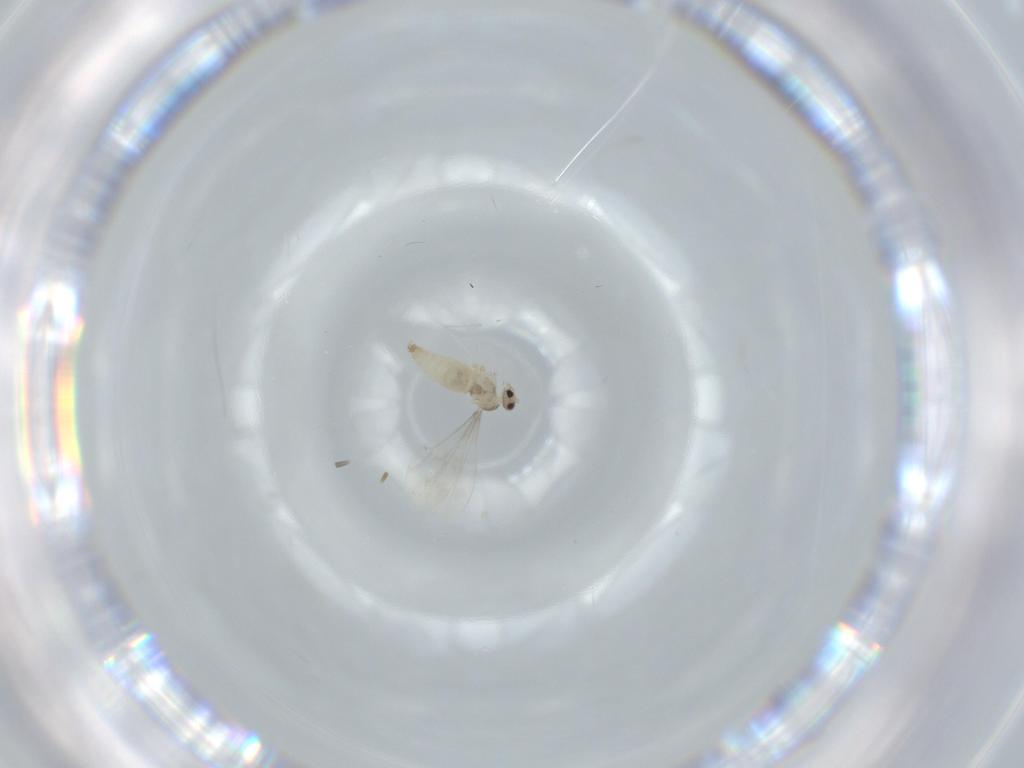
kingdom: Animalia
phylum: Arthropoda
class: Insecta
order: Diptera
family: Cecidomyiidae
